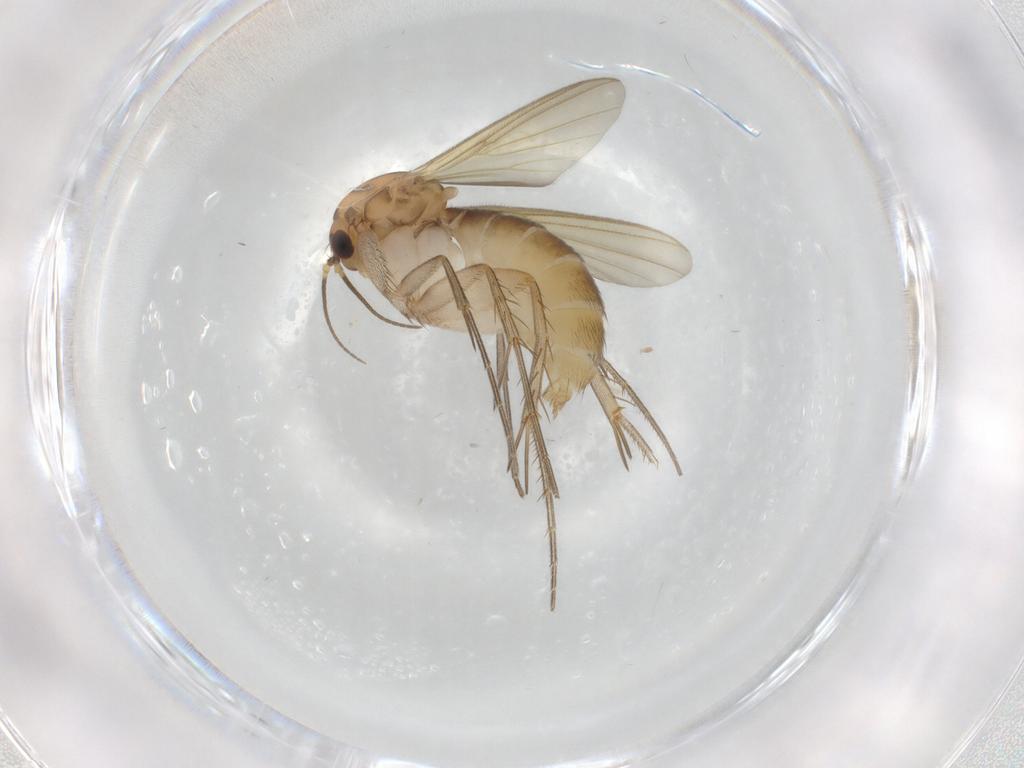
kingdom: Animalia
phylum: Arthropoda
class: Insecta
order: Diptera
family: Mycetophilidae
